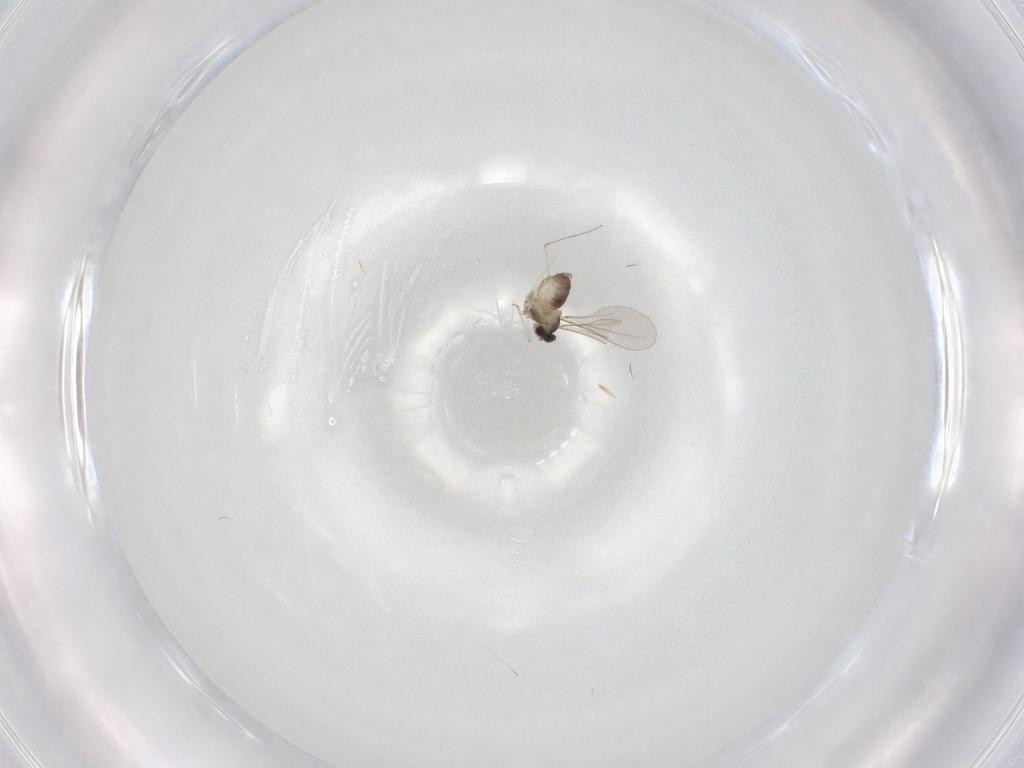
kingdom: Animalia
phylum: Arthropoda
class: Insecta
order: Diptera
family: Cecidomyiidae
